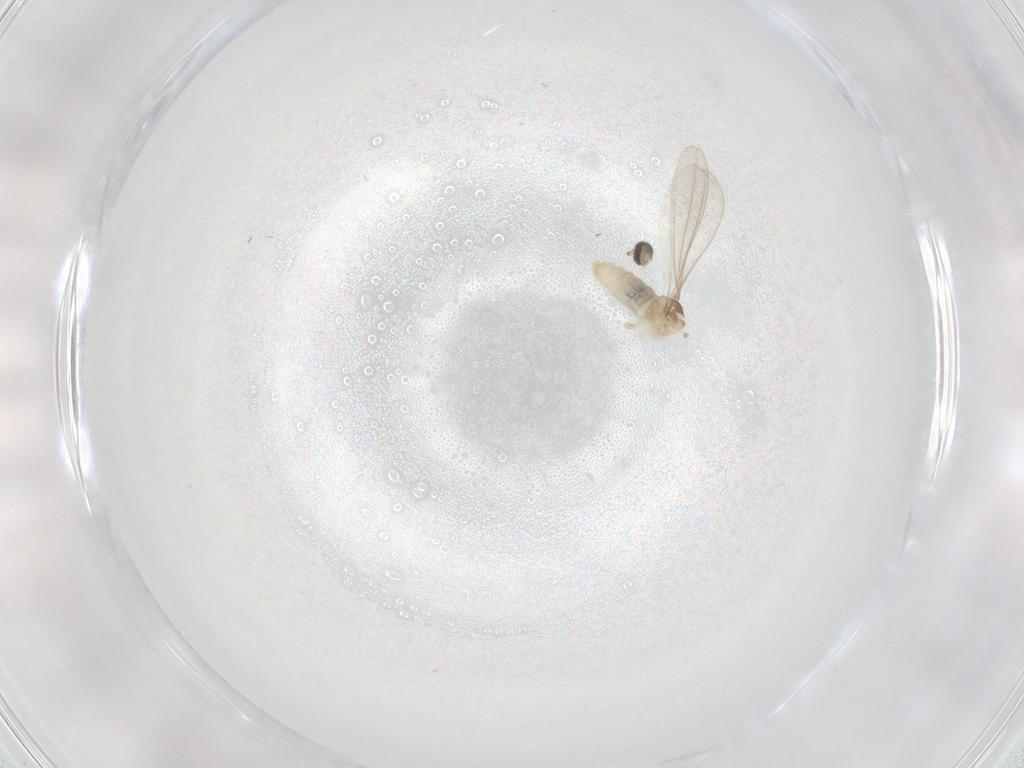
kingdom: Animalia
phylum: Arthropoda
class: Insecta
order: Diptera
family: Cecidomyiidae
